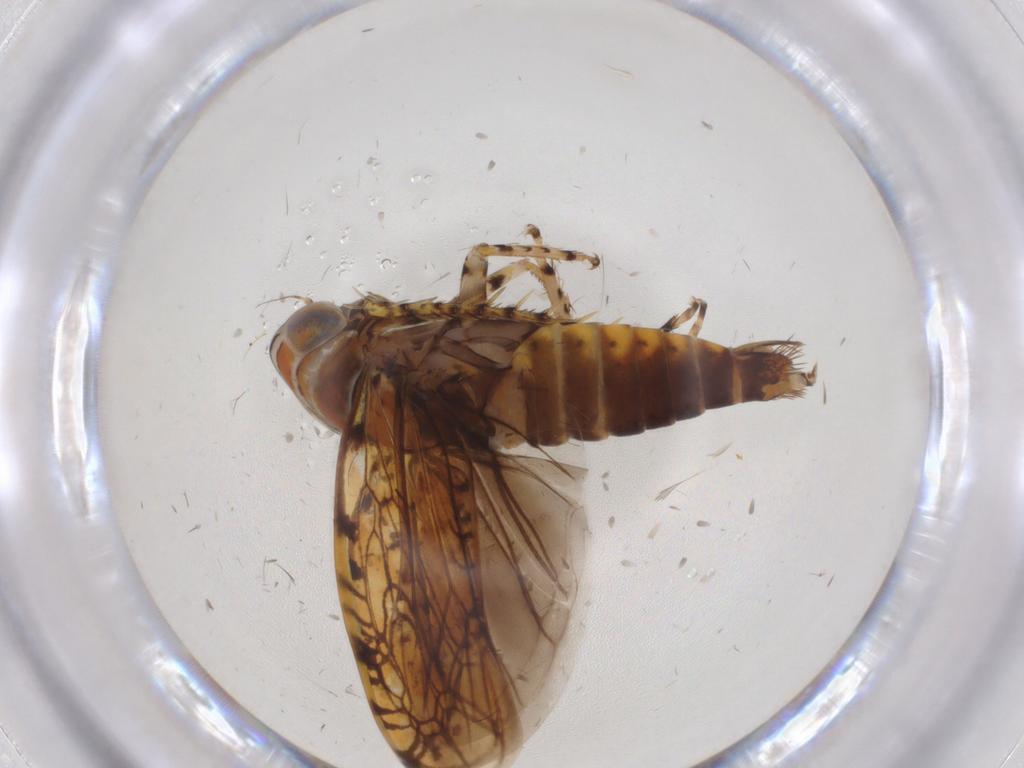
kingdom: Animalia
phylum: Arthropoda
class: Insecta
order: Hemiptera
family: Cicadellidae
